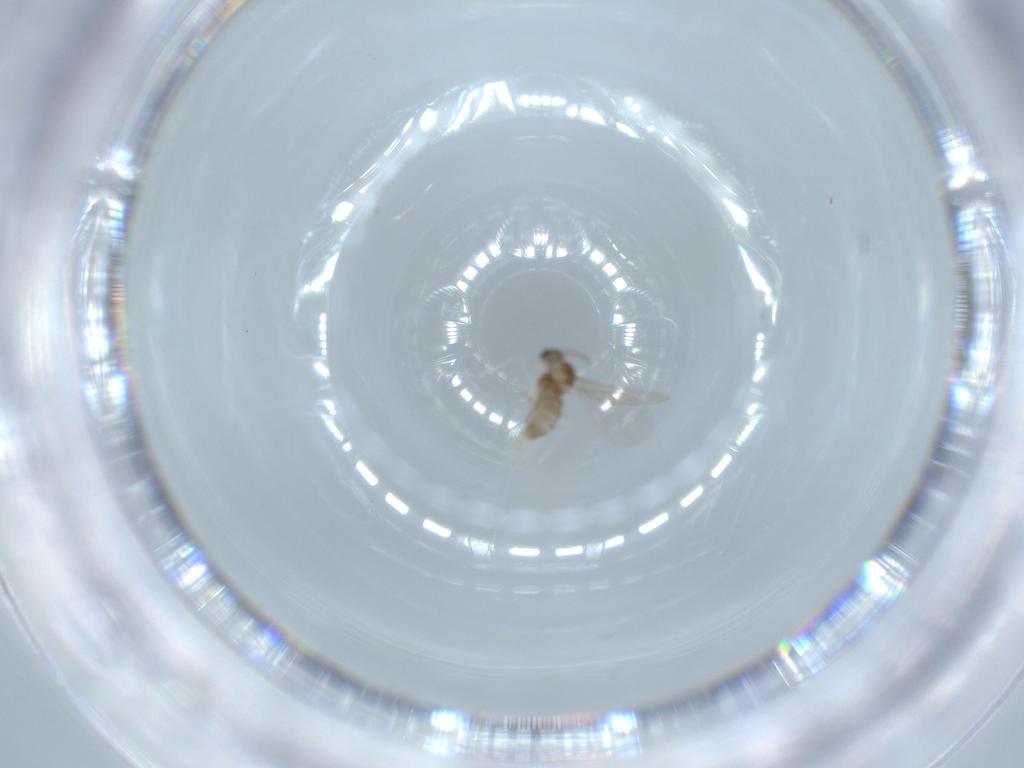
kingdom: Animalia
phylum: Arthropoda
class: Insecta
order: Diptera
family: Cecidomyiidae
